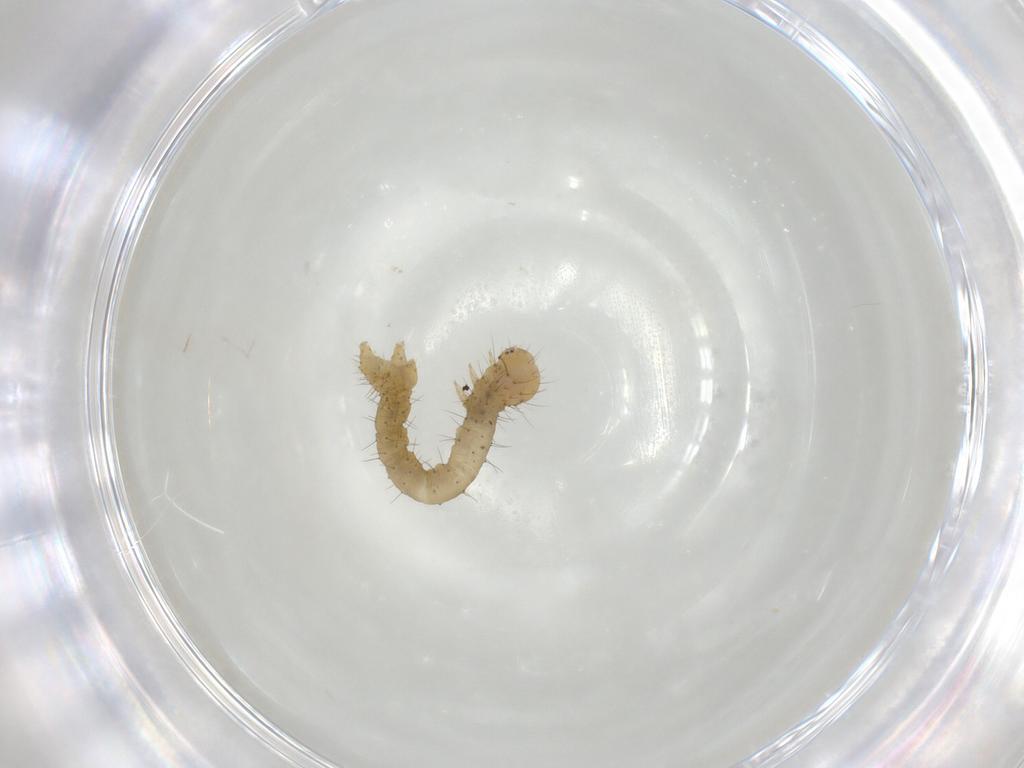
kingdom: Animalia
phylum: Arthropoda
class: Insecta
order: Lepidoptera
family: Geometridae
